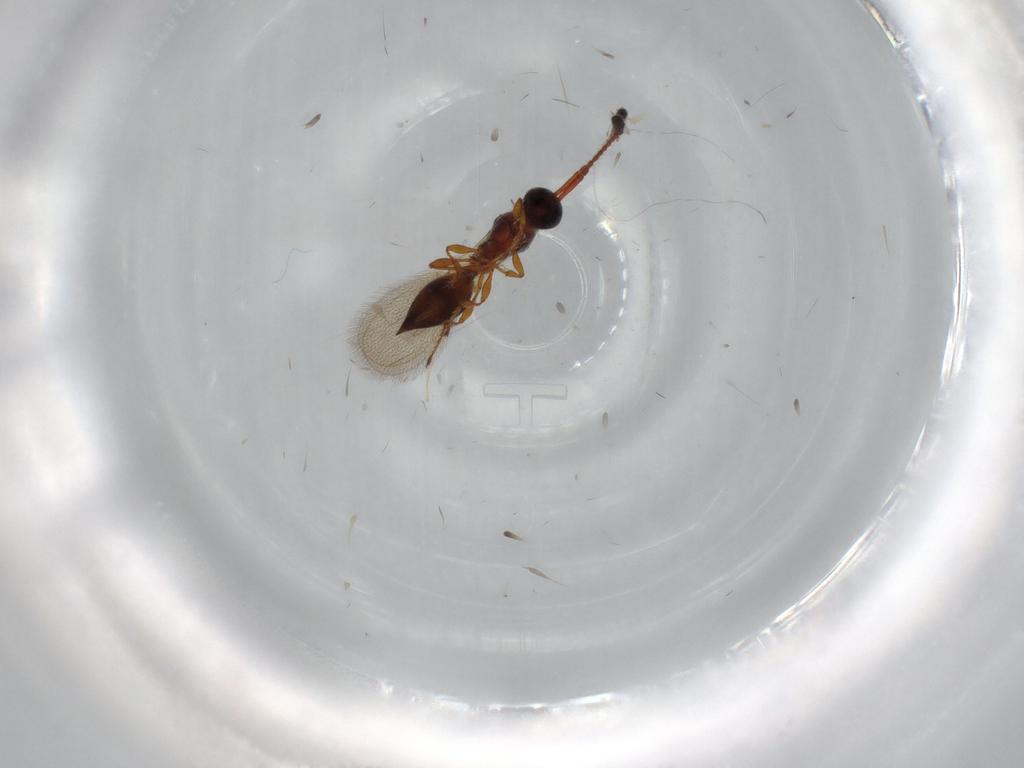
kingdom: Animalia
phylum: Arthropoda
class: Insecta
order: Hymenoptera
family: Diapriidae
